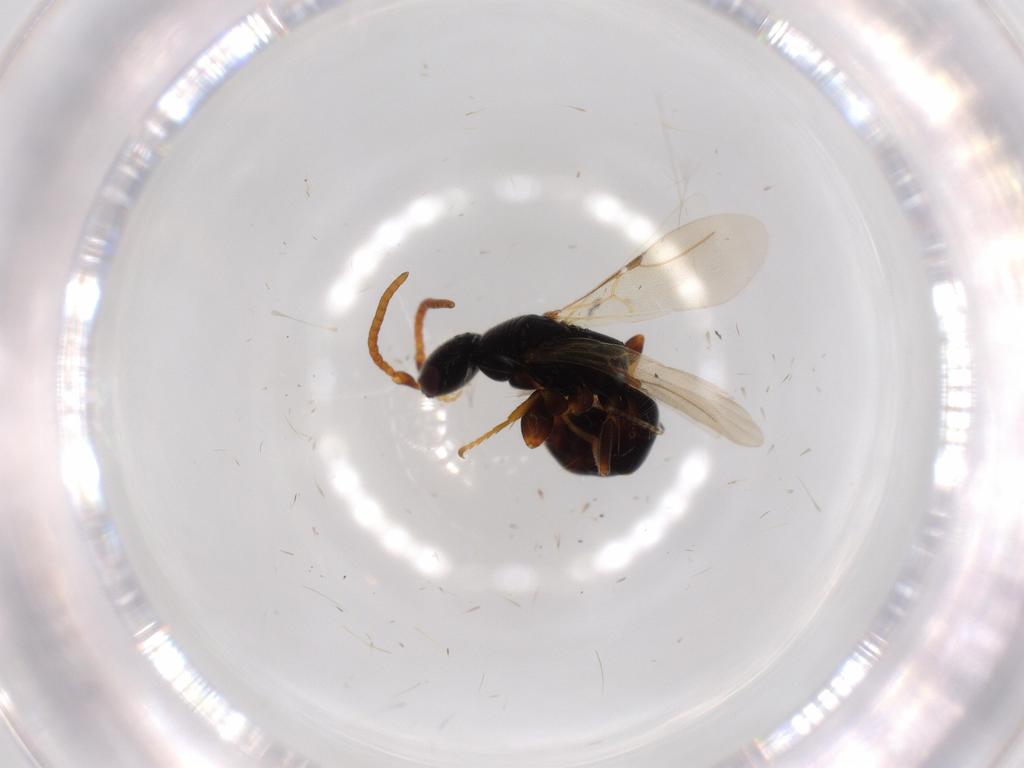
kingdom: Animalia
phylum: Arthropoda
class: Insecta
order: Hymenoptera
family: Bethylidae
